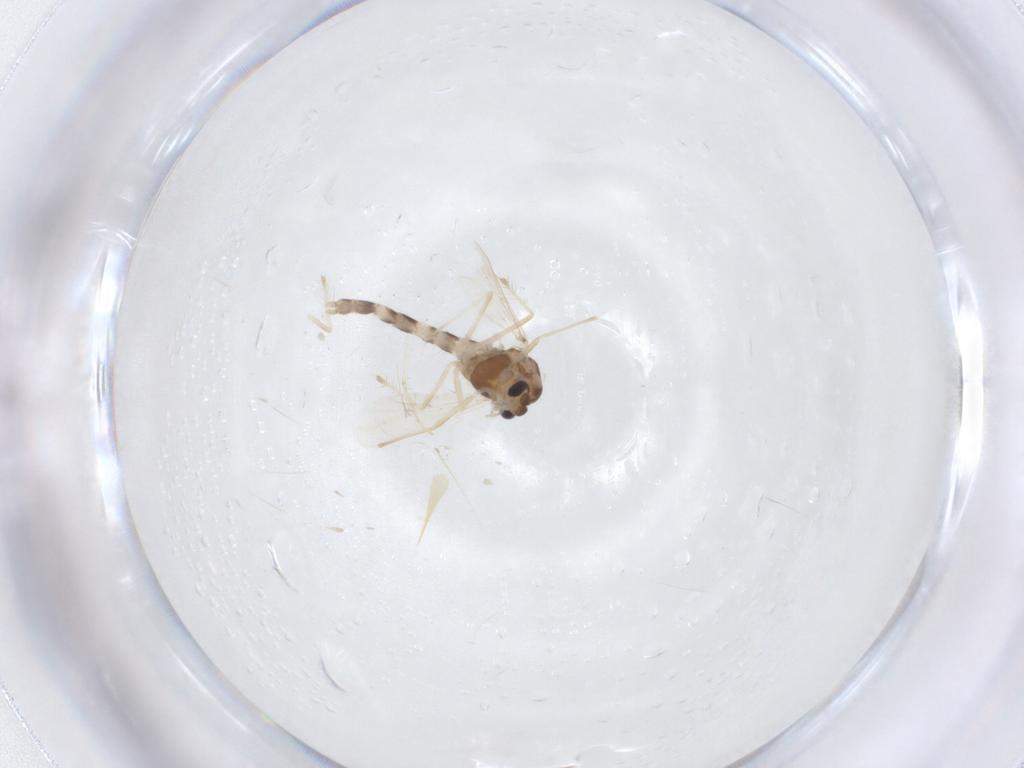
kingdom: Animalia
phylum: Arthropoda
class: Insecta
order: Diptera
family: Chironomidae
